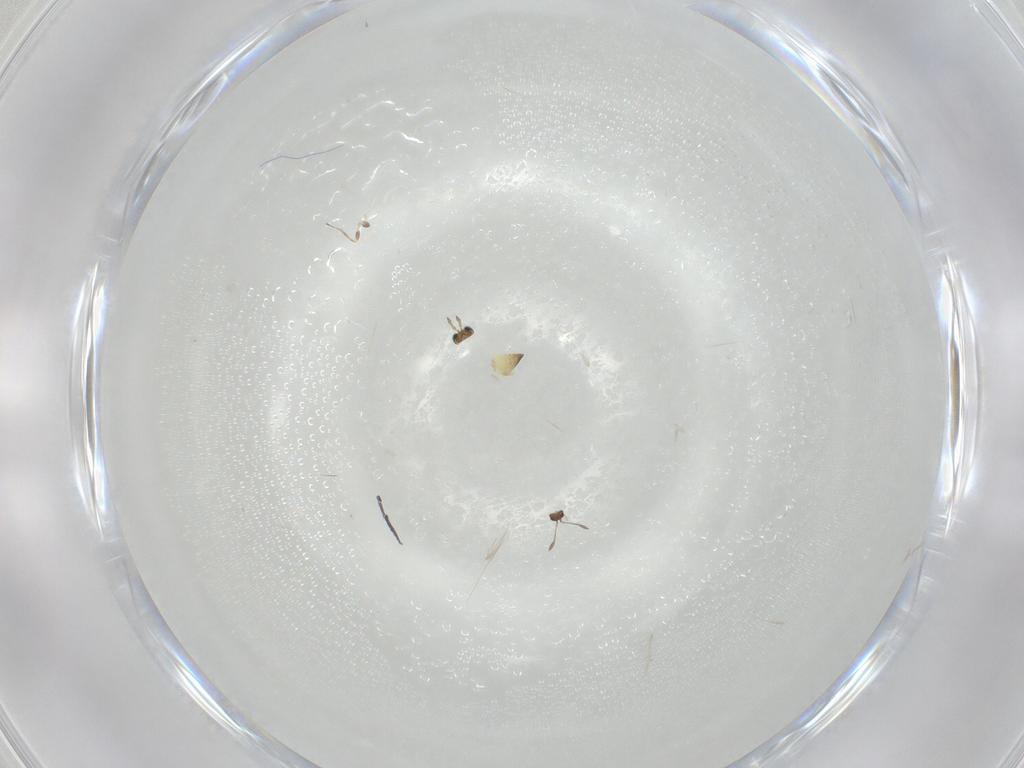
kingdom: Animalia
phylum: Arthropoda
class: Insecta
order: Hymenoptera
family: Trichogrammatidae
